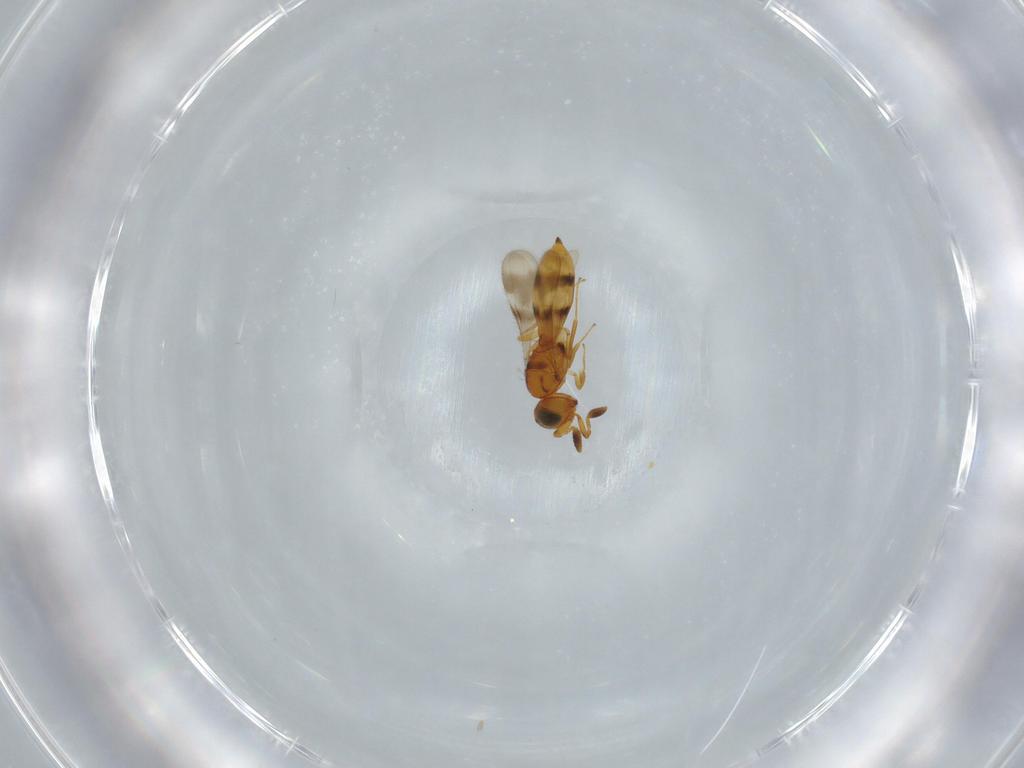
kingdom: Animalia
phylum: Arthropoda
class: Insecta
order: Hymenoptera
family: Scelionidae
